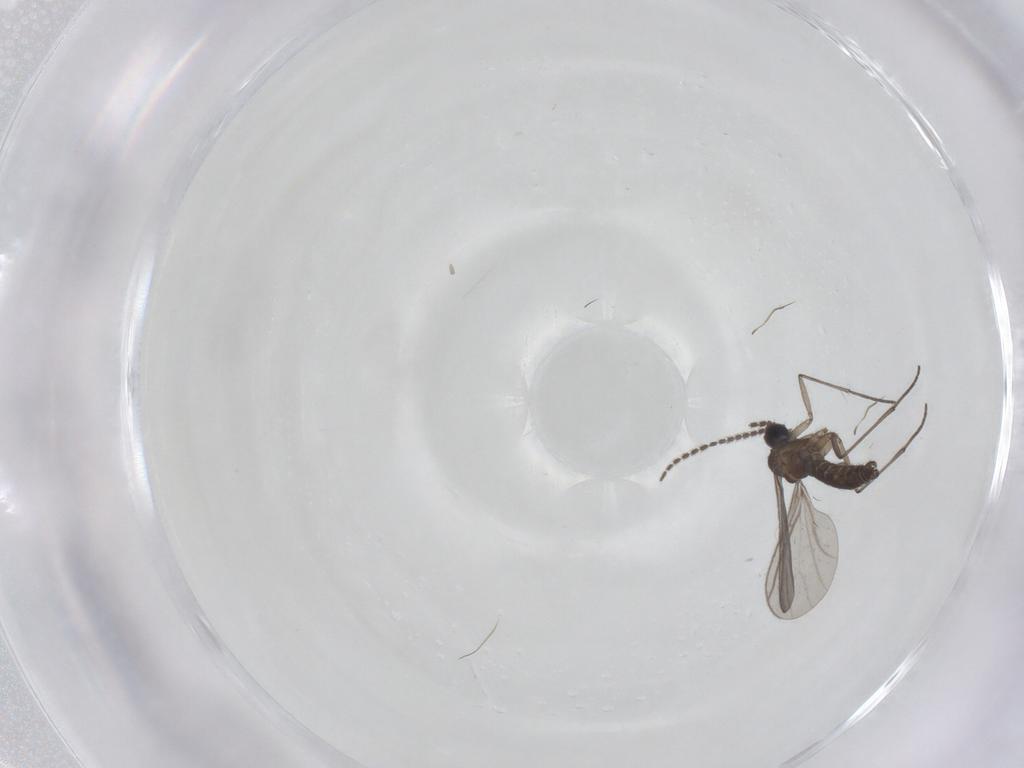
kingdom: Animalia
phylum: Arthropoda
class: Insecta
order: Diptera
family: Sciaridae
